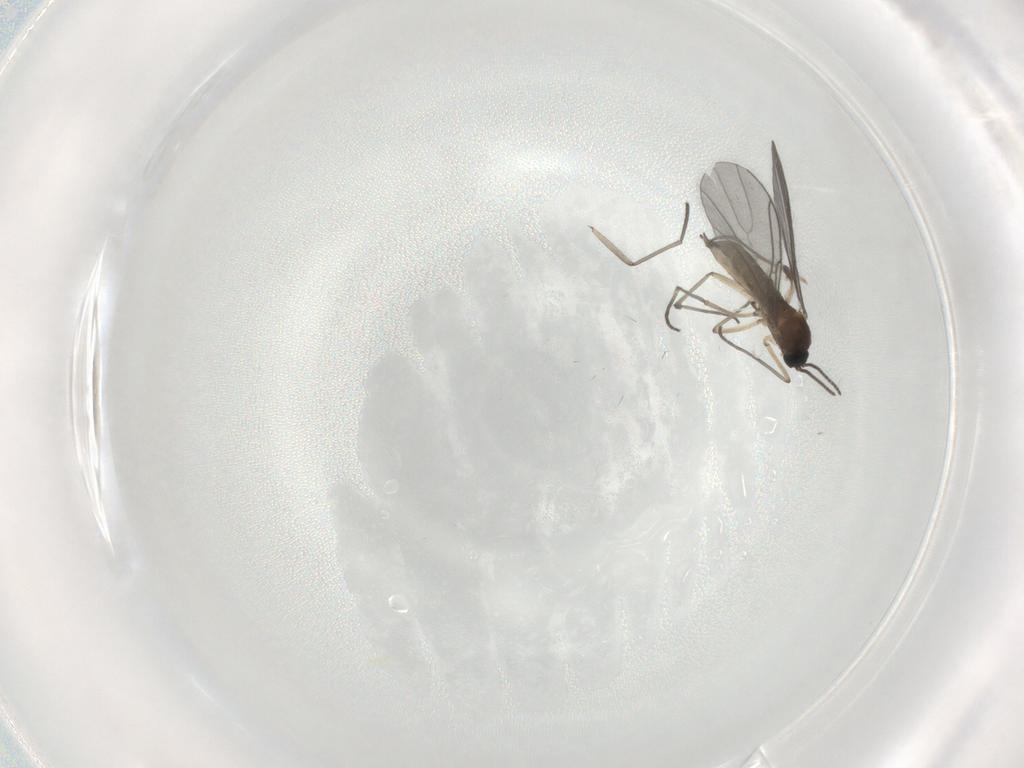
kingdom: Animalia
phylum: Arthropoda
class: Insecta
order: Diptera
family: Sciaridae
